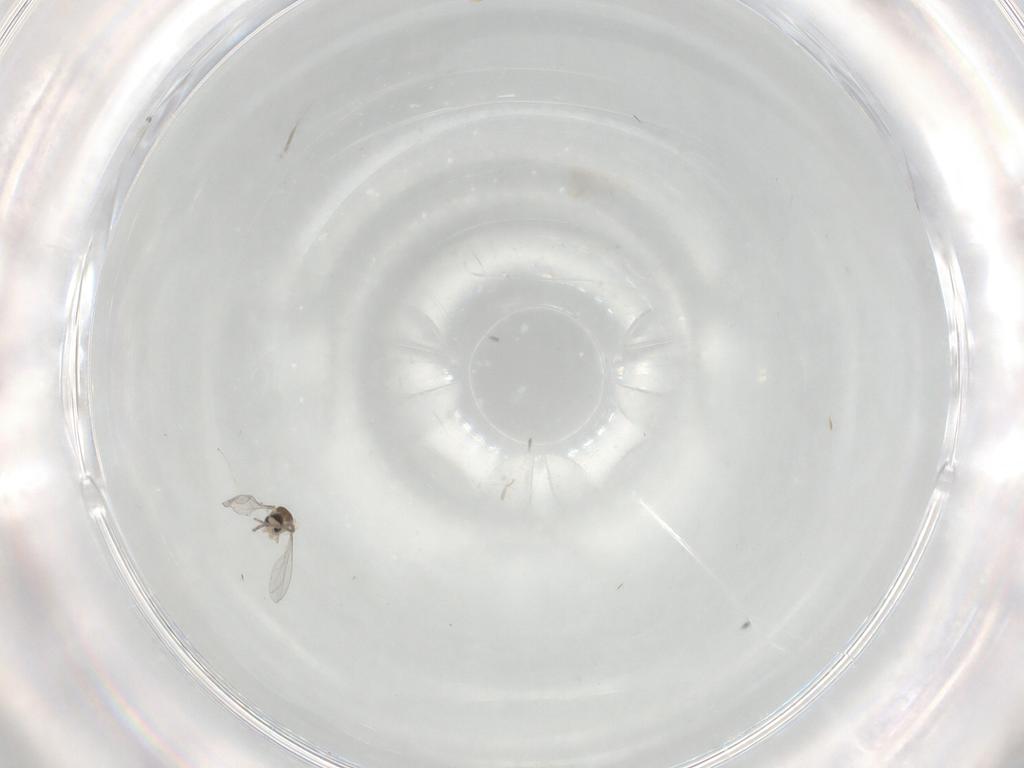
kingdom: Animalia
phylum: Arthropoda
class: Insecta
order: Diptera
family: Cecidomyiidae
